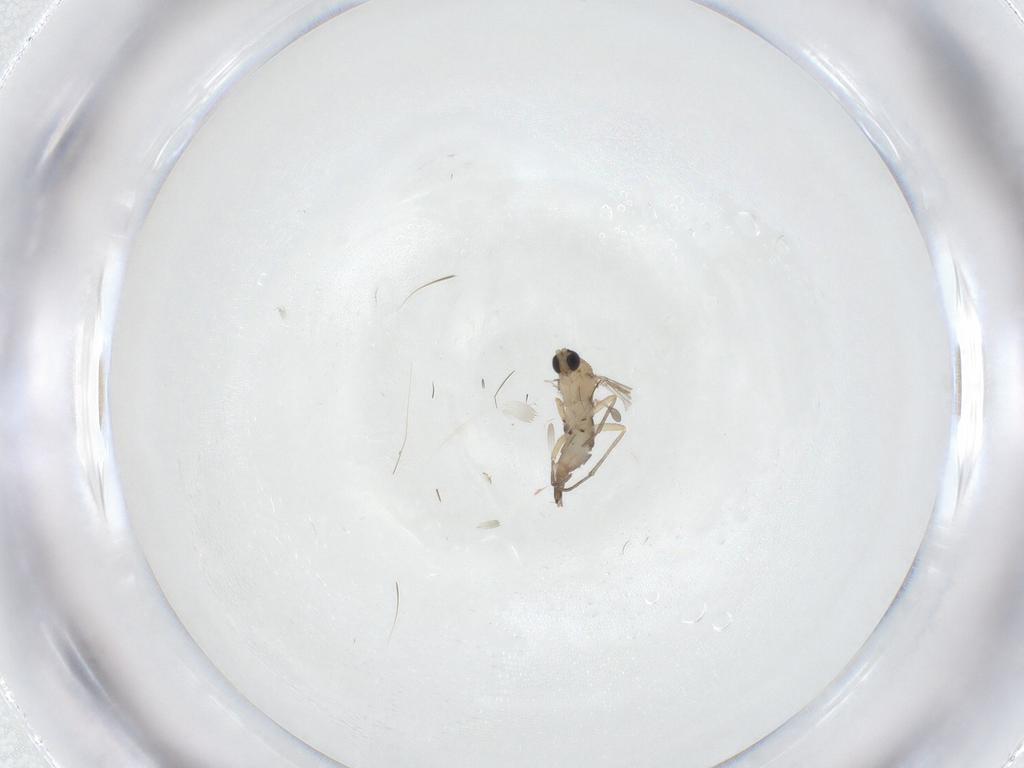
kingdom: Animalia
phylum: Arthropoda
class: Insecta
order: Diptera
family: Sciaridae
